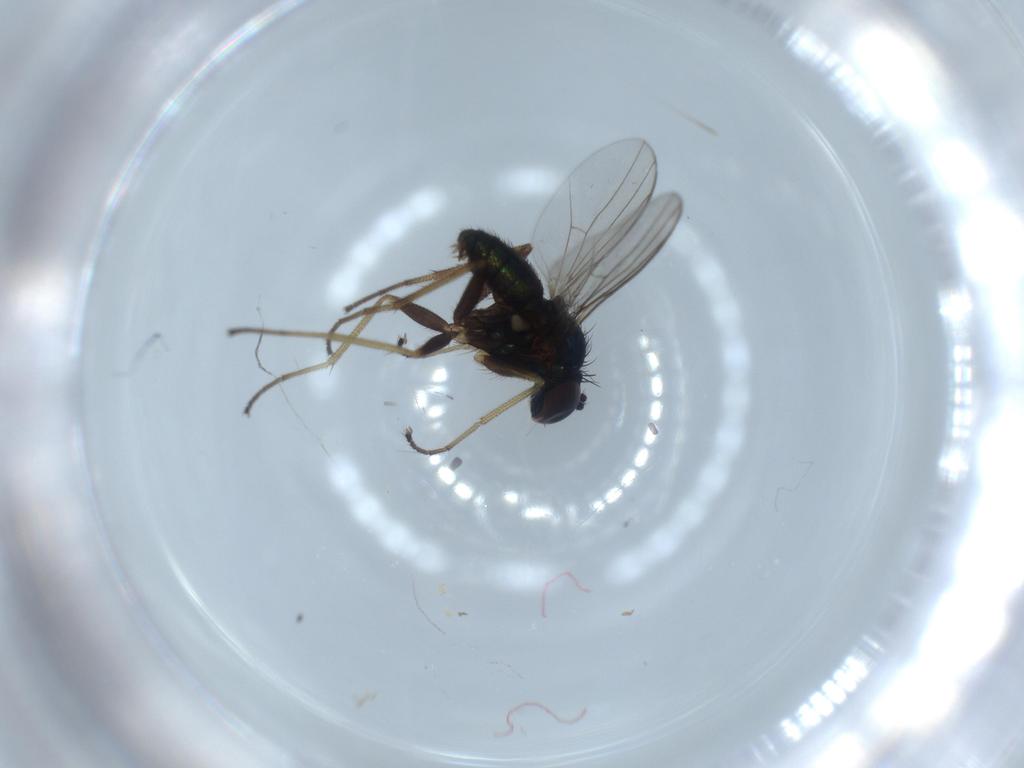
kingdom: Animalia
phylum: Arthropoda
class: Insecta
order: Diptera
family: Dolichopodidae
